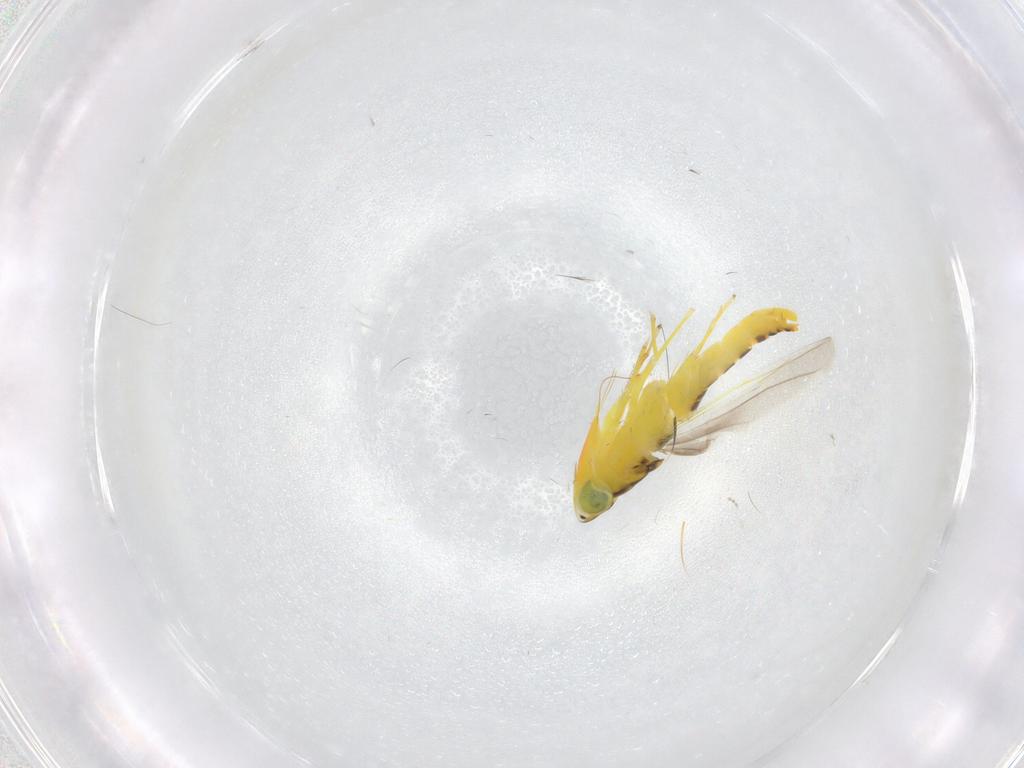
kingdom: Animalia
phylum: Arthropoda
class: Insecta
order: Hemiptera
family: Cicadellidae
